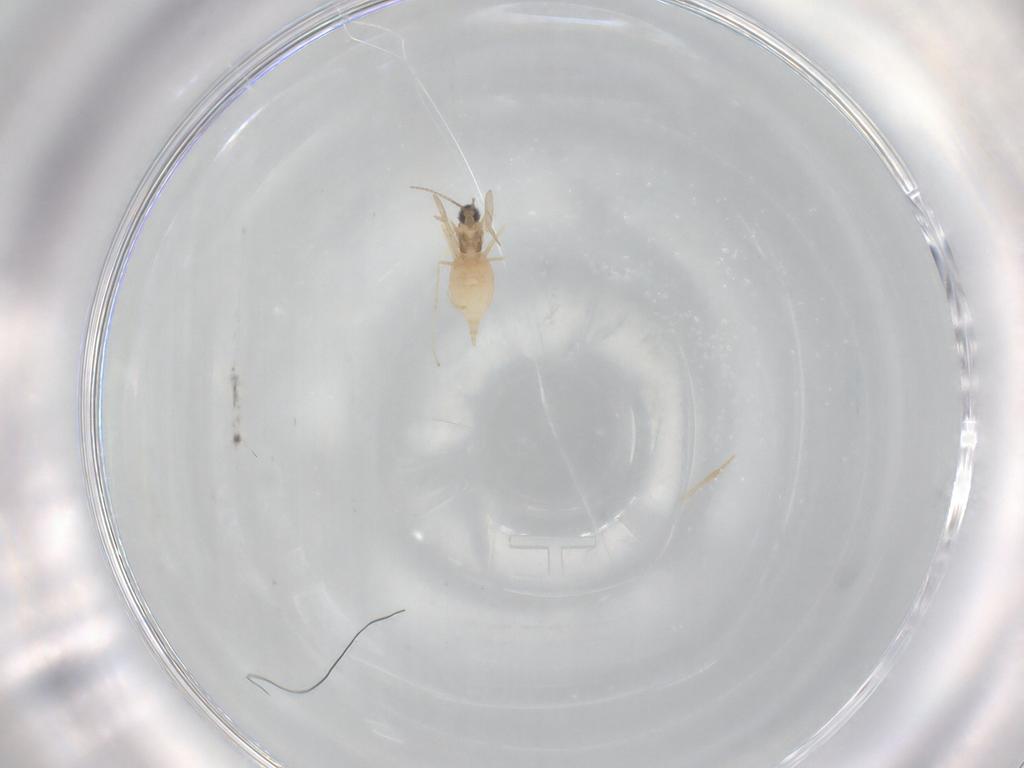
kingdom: Animalia
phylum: Arthropoda
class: Insecta
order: Diptera
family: Cecidomyiidae
